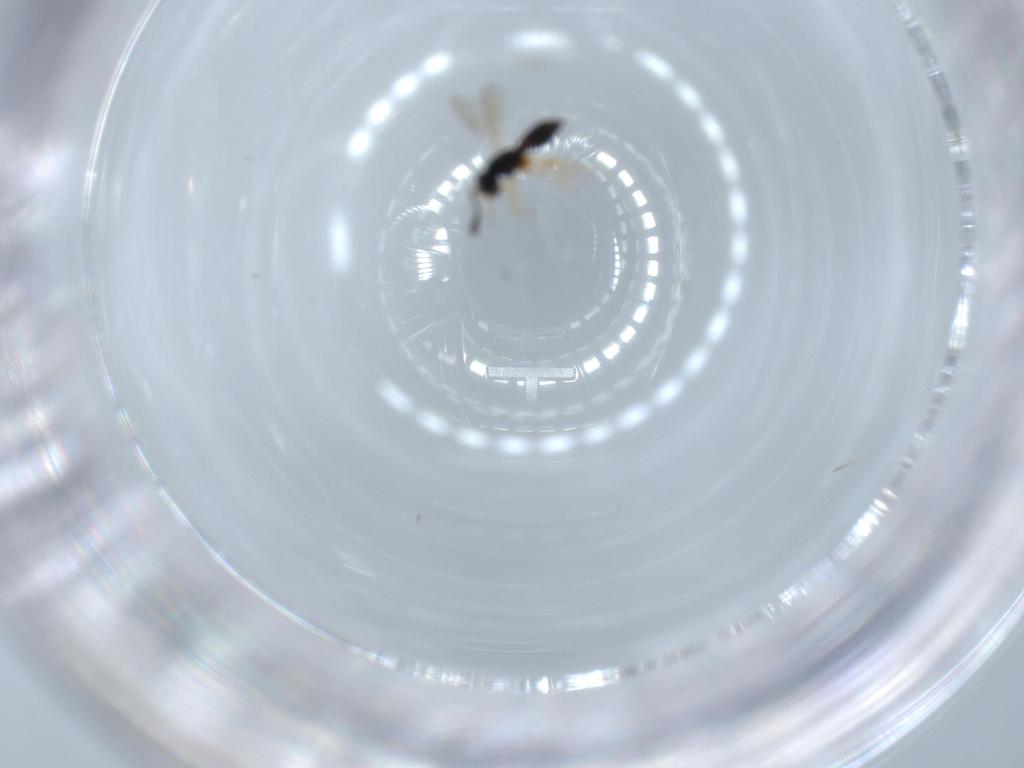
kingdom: Animalia
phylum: Arthropoda
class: Insecta
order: Hymenoptera
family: Scelionidae
